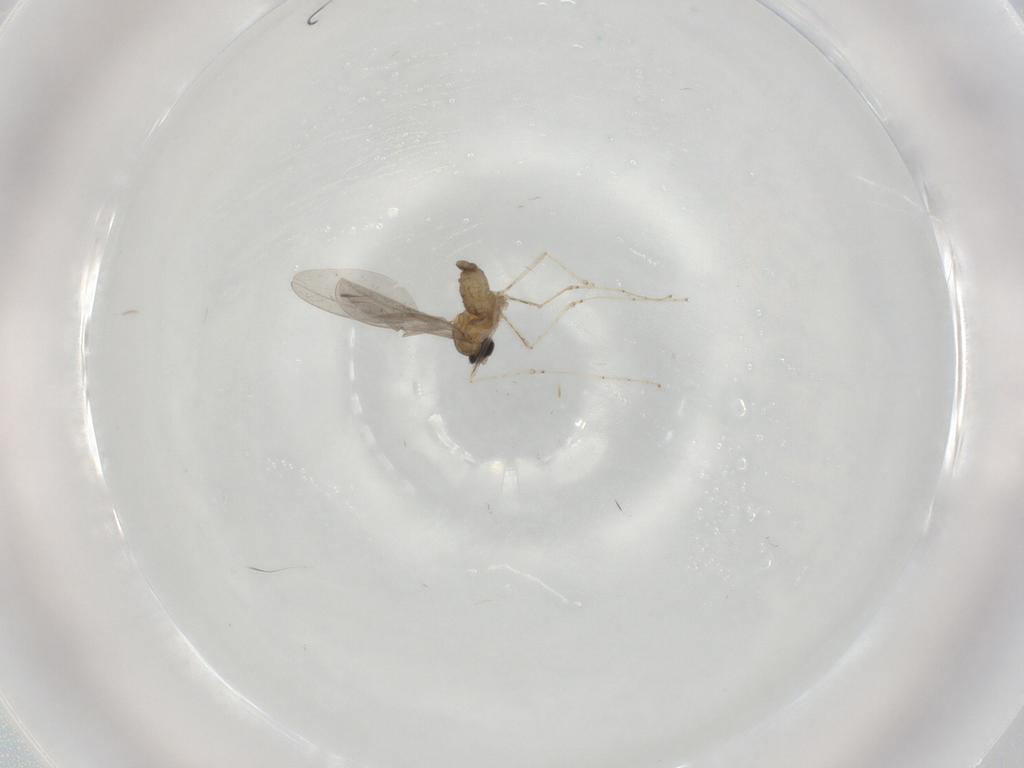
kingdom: Animalia
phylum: Arthropoda
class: Insecta
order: Diptera
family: Cecidomyiidae
